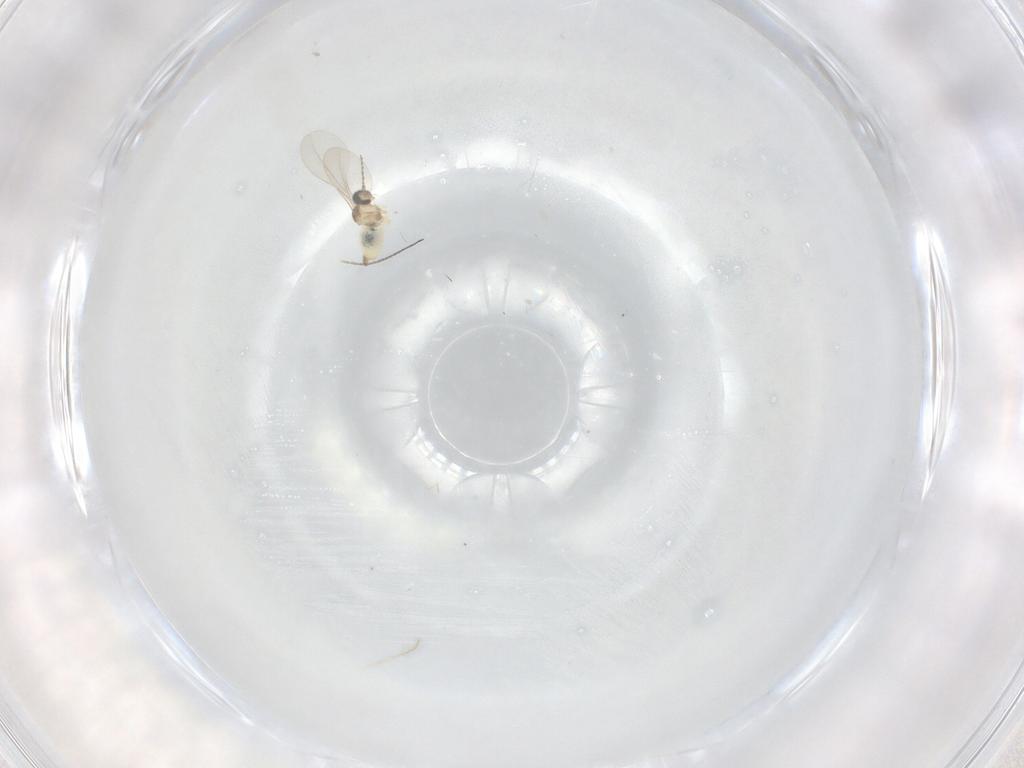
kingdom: Animalia
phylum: Arthropoda
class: Insecta
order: Diptera
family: Cecidomyiidae
